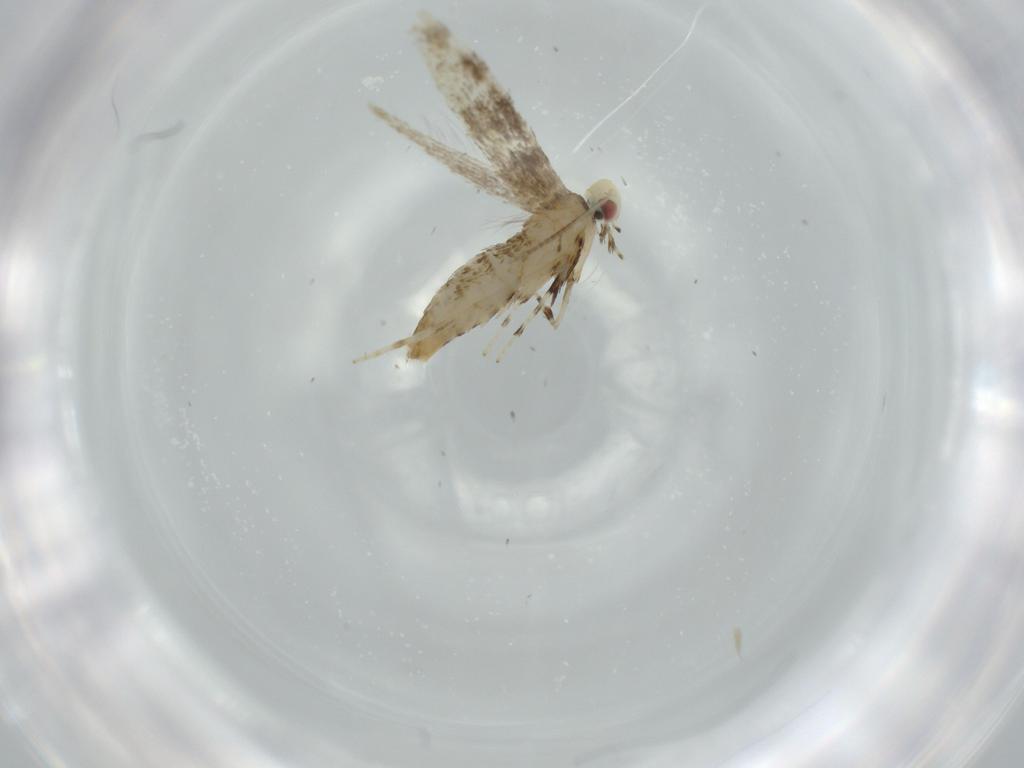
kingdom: Animalia
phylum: Arthropoda
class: Insecta
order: Lepidoptera
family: Gracillariidae
